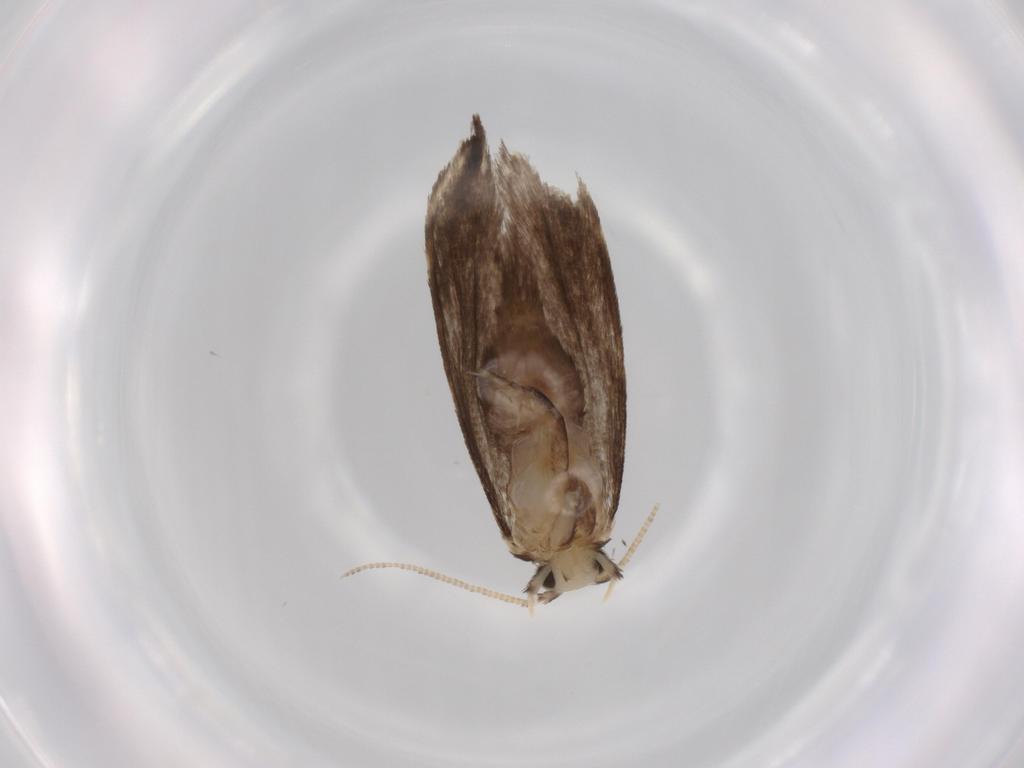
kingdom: Animalia
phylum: Arthropoda
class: Insecta
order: Lepidoptera
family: Dryadaulidae
